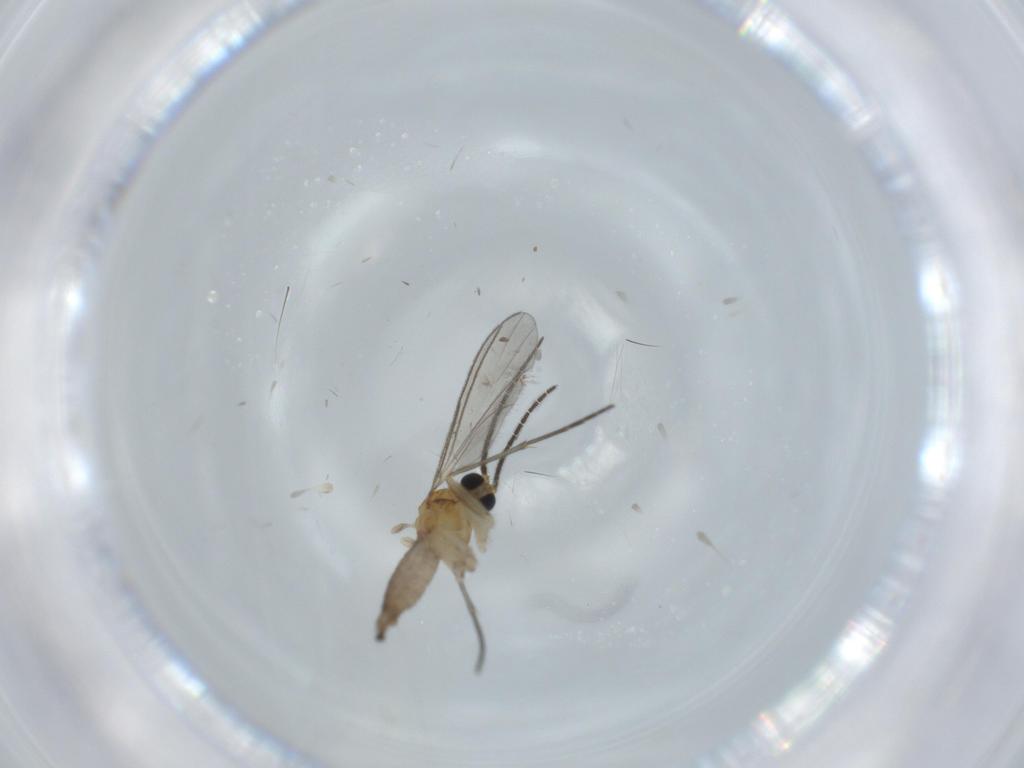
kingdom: Animalia
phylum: Arthropoda
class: Insecta
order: Diptera
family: Sciaridae
